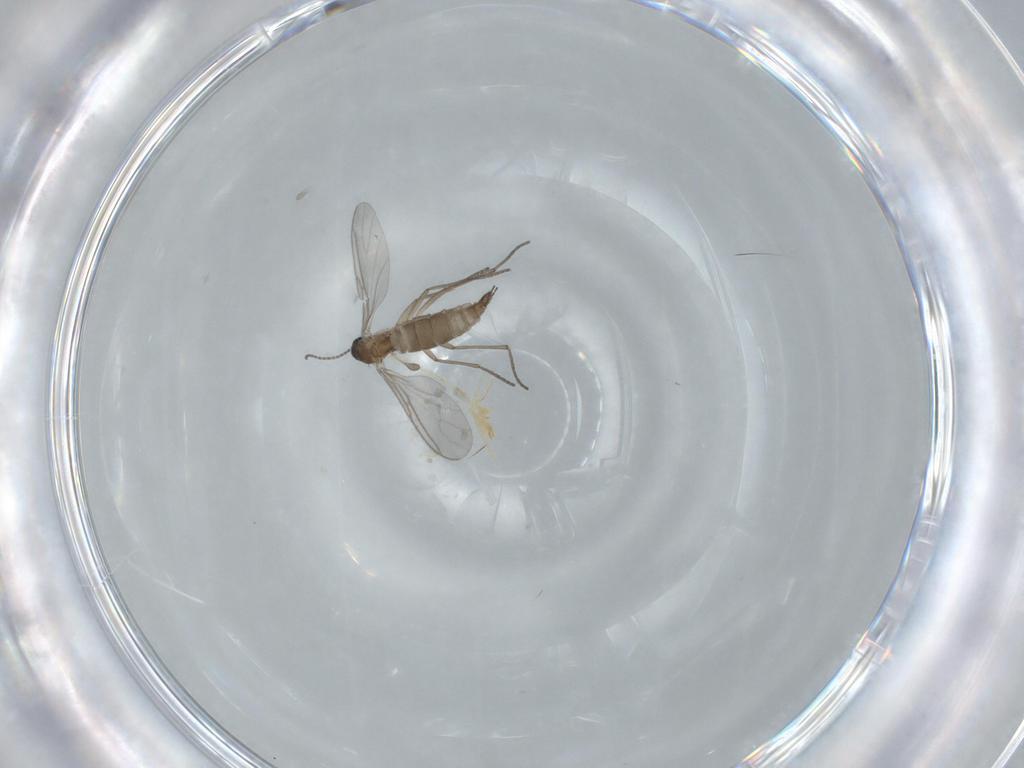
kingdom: Animalia
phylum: Arthropoda
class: Insecta
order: Diptera
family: Sciaridae
